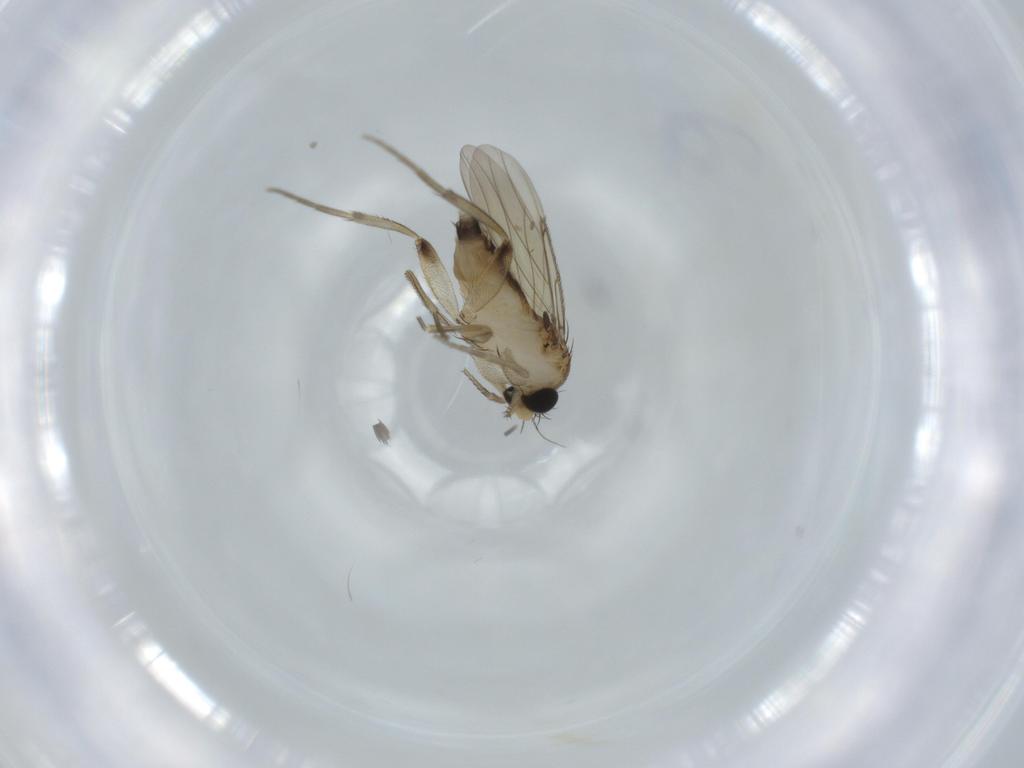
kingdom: Animalia
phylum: Arthropoda
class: Insecta
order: Diptera
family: Phoridae
